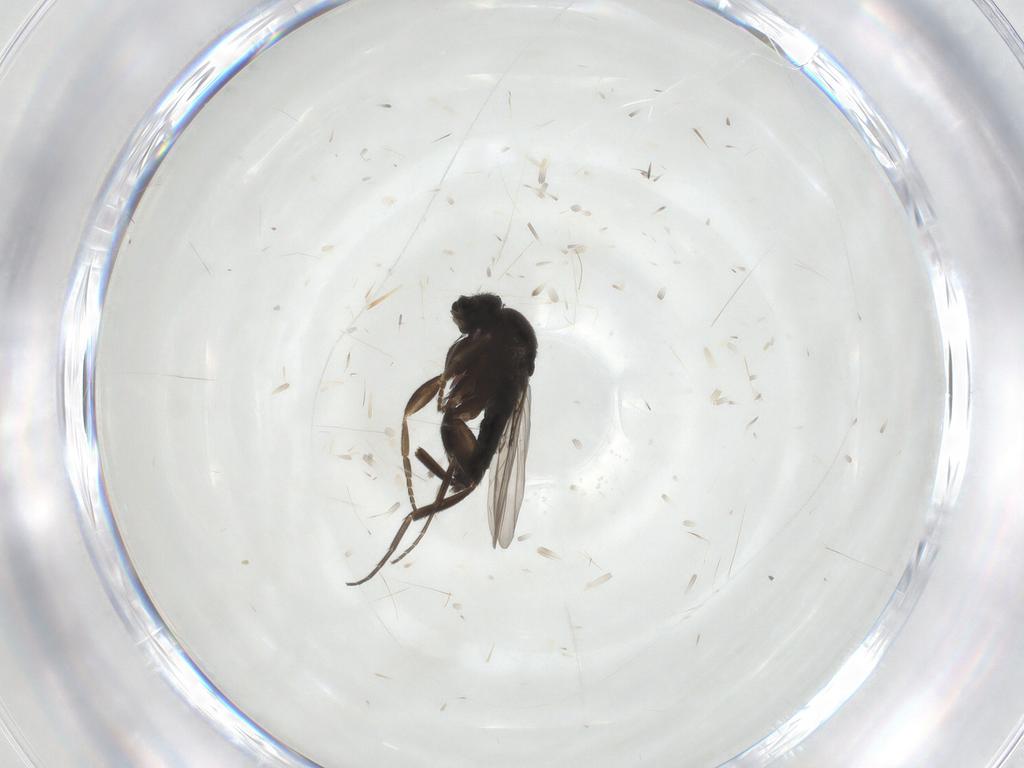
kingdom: Animalia
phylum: Arthropoda
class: Insecta
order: Diptera
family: Phoridae
